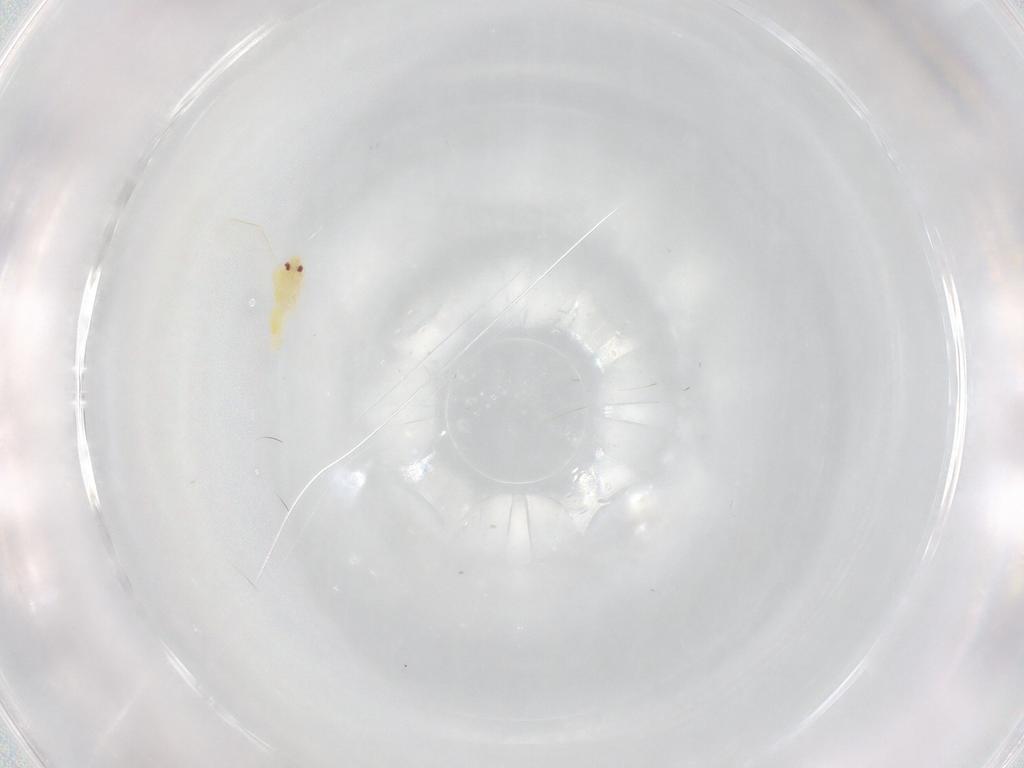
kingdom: Animalia
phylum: Arthropoda
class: Insecta
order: Hemiptera
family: Aleyrodidae
